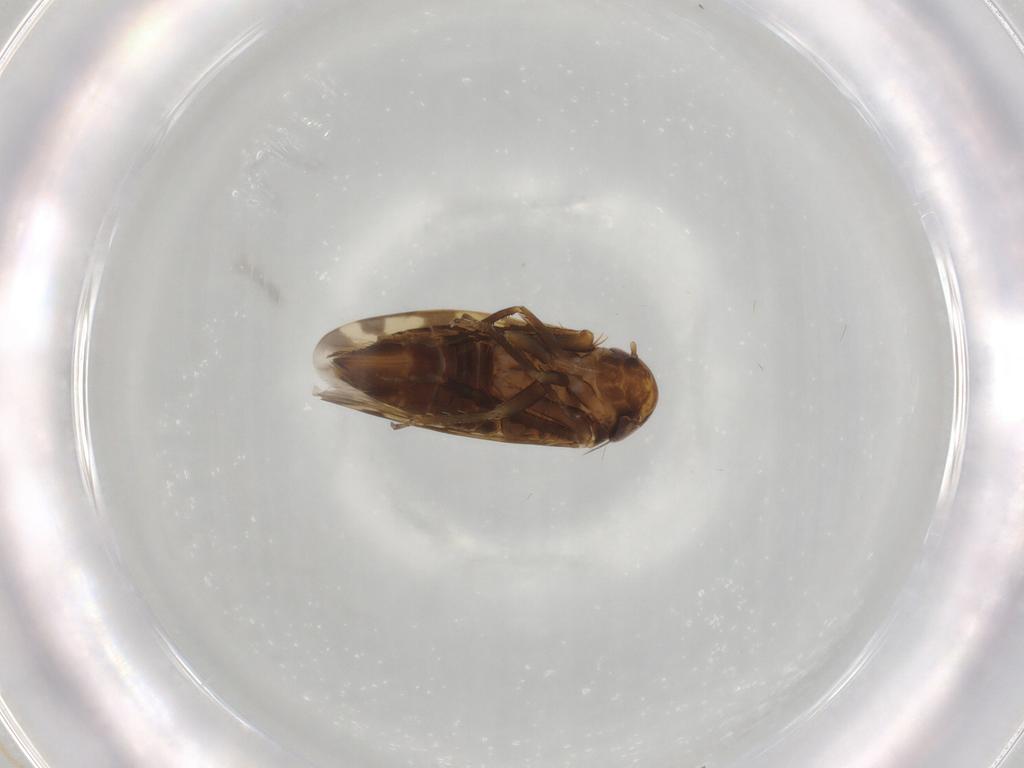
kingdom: Animalia
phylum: Arthropoda
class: Insecta
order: Hemiptera
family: Cicadellidae
